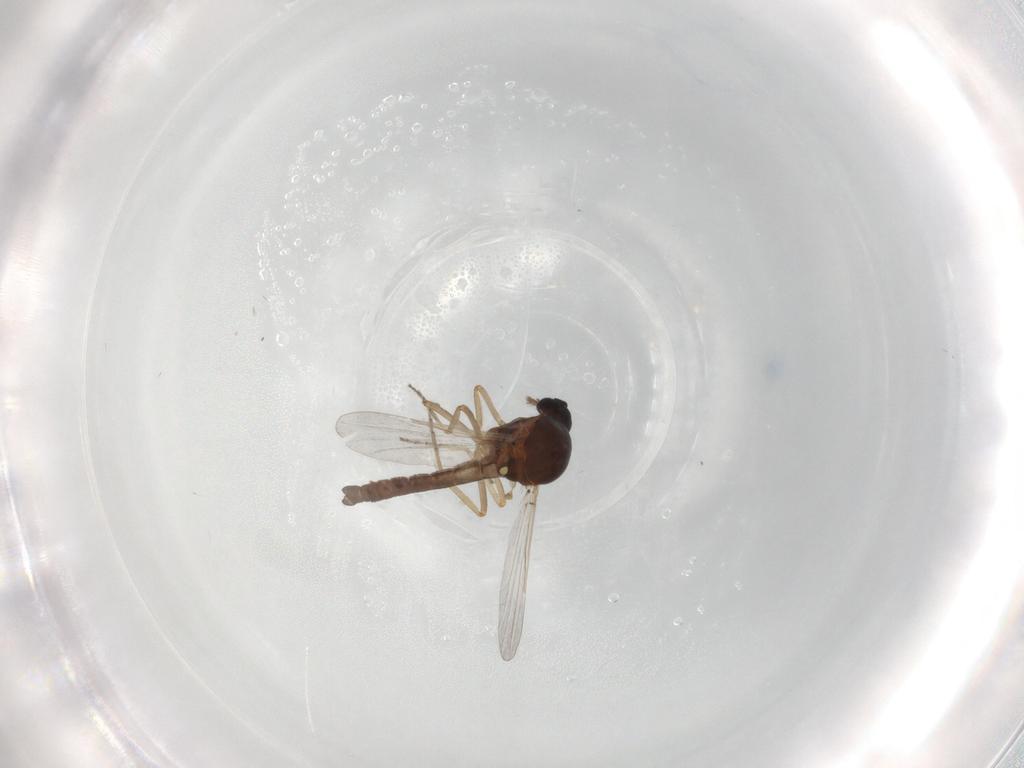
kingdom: Animalia
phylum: Arthropoda
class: Insecta
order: Diptera
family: Ceratopogonidae
